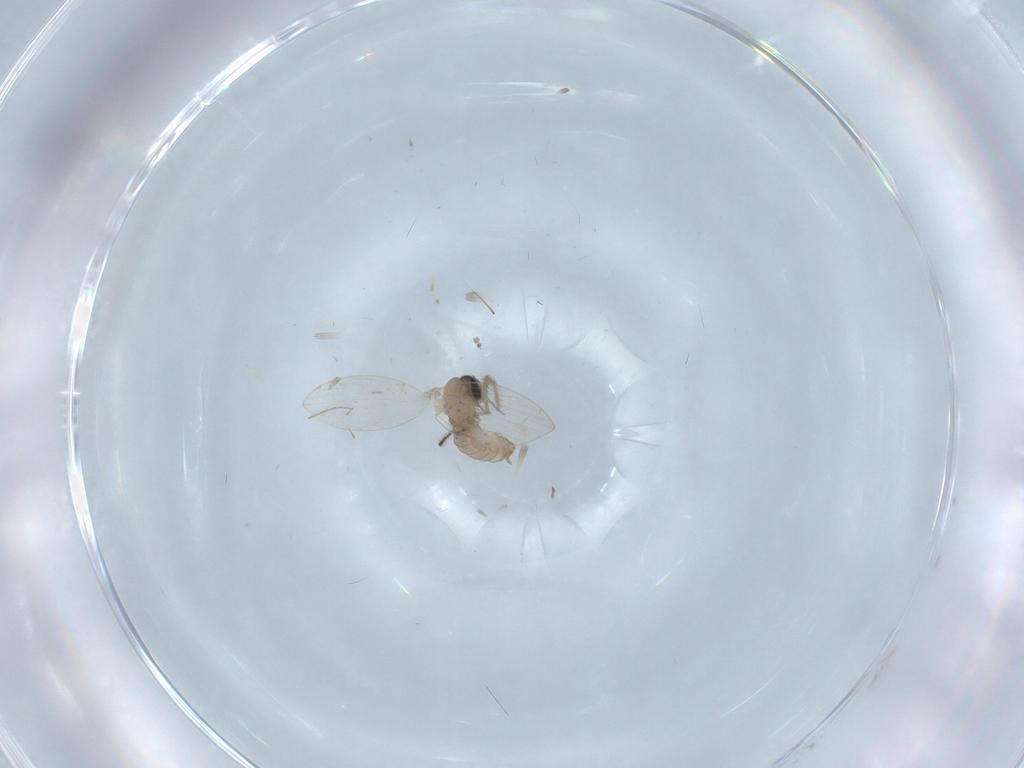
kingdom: Animalia
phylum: Arthropoda
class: Insecta
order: Diptera
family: Psychodidae
